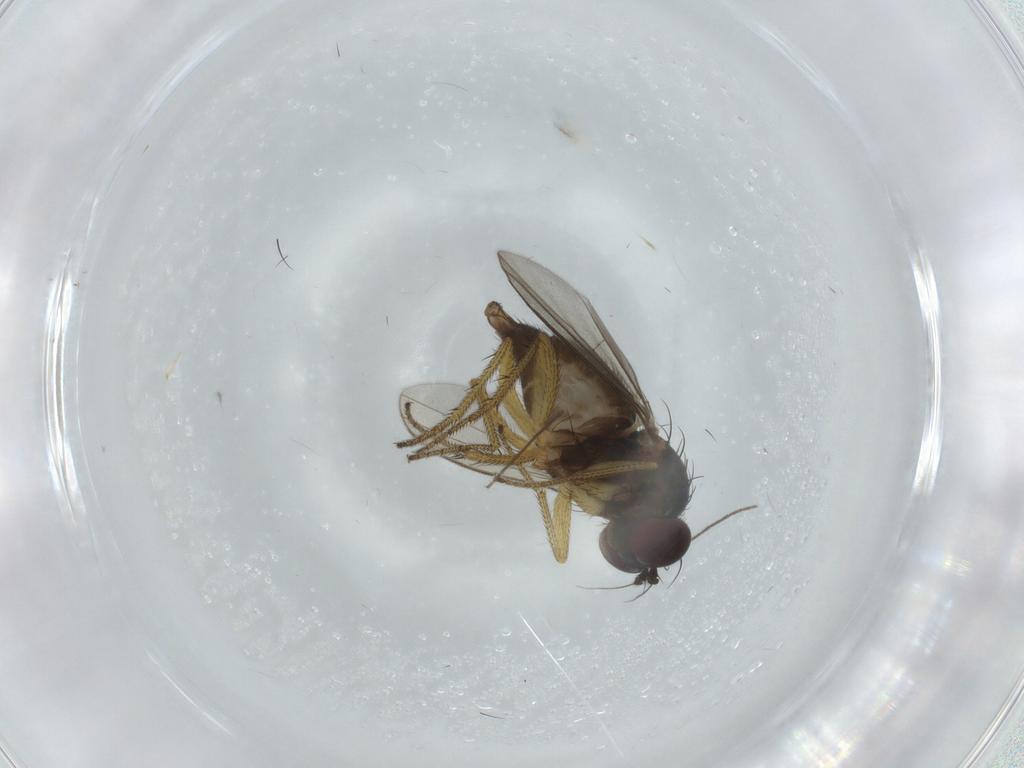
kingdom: Animalia
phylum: Arthropoda
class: Insecta
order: Diptera
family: Dolichopodidae
